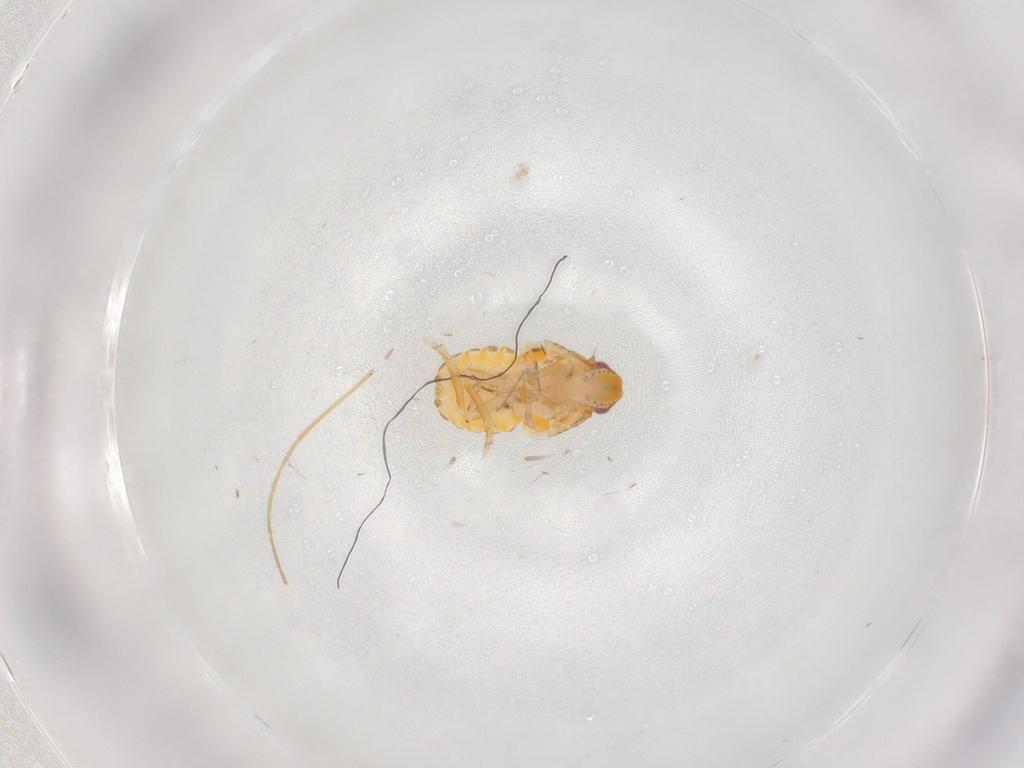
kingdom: Animalia
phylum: Arthropoda
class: Insecta
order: Hemiptera
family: Flatidae
